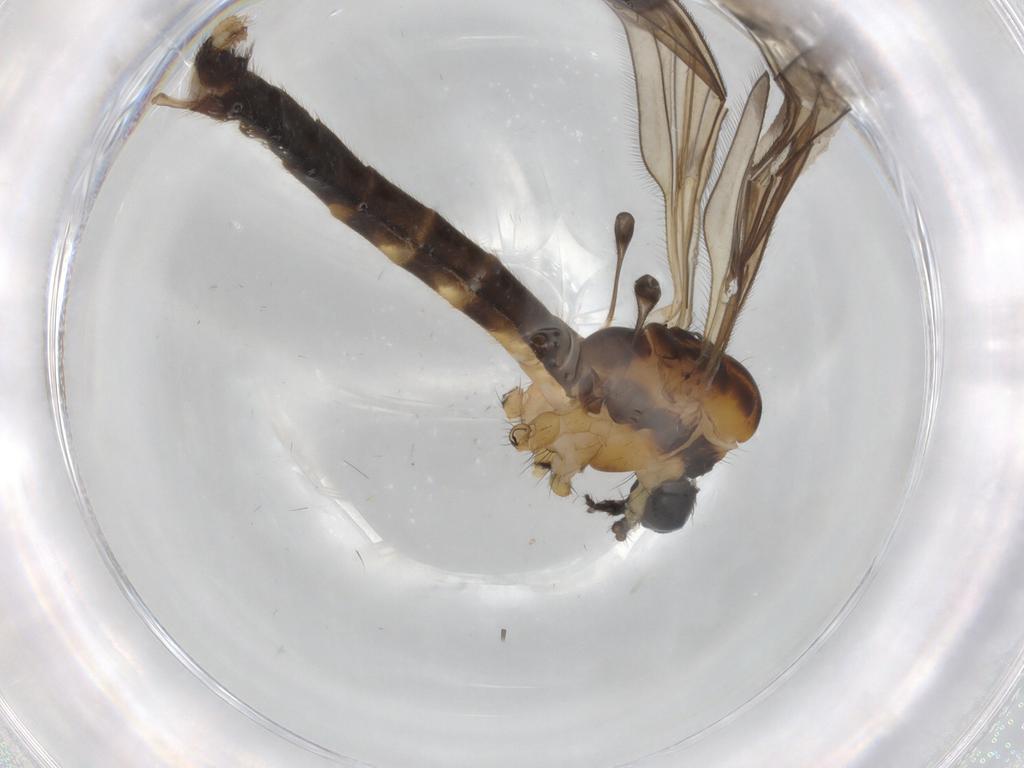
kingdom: Animalia
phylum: Arthropoda
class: Insecta
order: Diptera
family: Limoniidae
